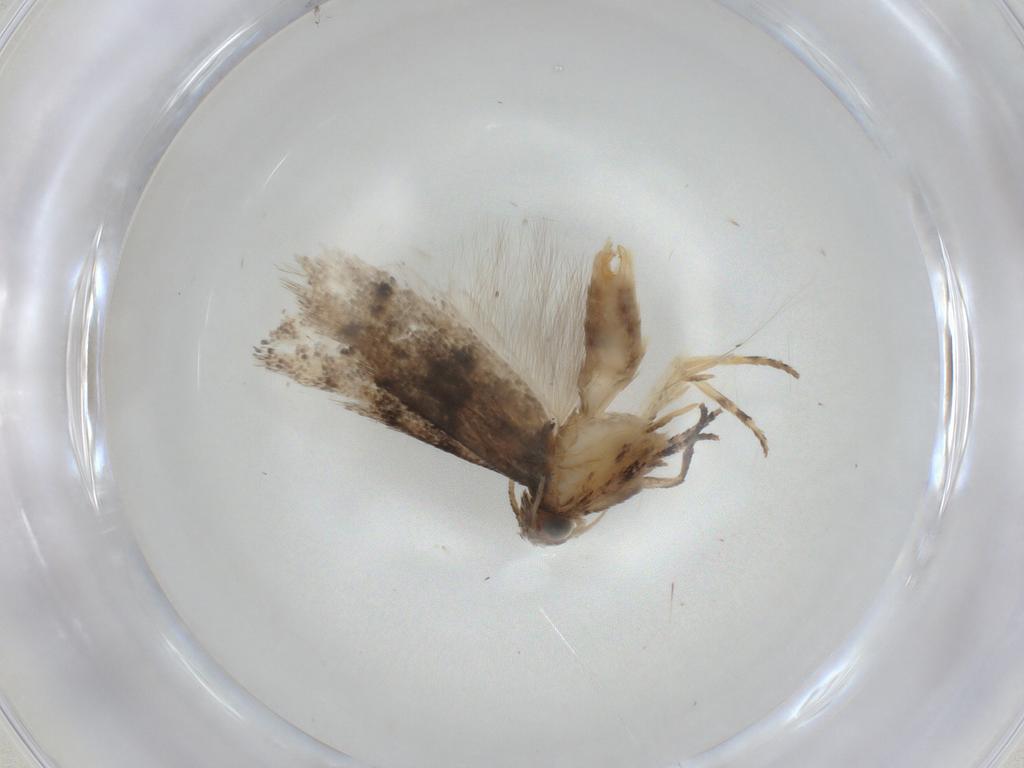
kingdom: Animalia
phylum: Arthropoda
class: Insecta
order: Lepidoptera
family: Gelechiidae
